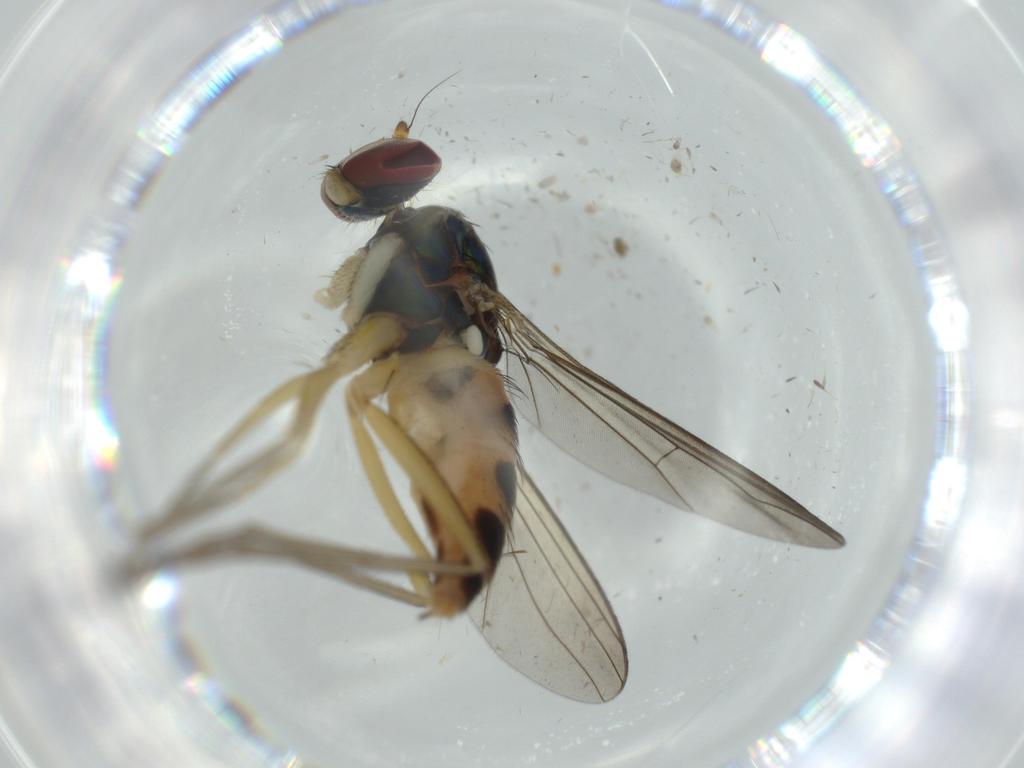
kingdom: Animalia
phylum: Arthropoda
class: Insecta
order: Diptera
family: Dolichopodidae
